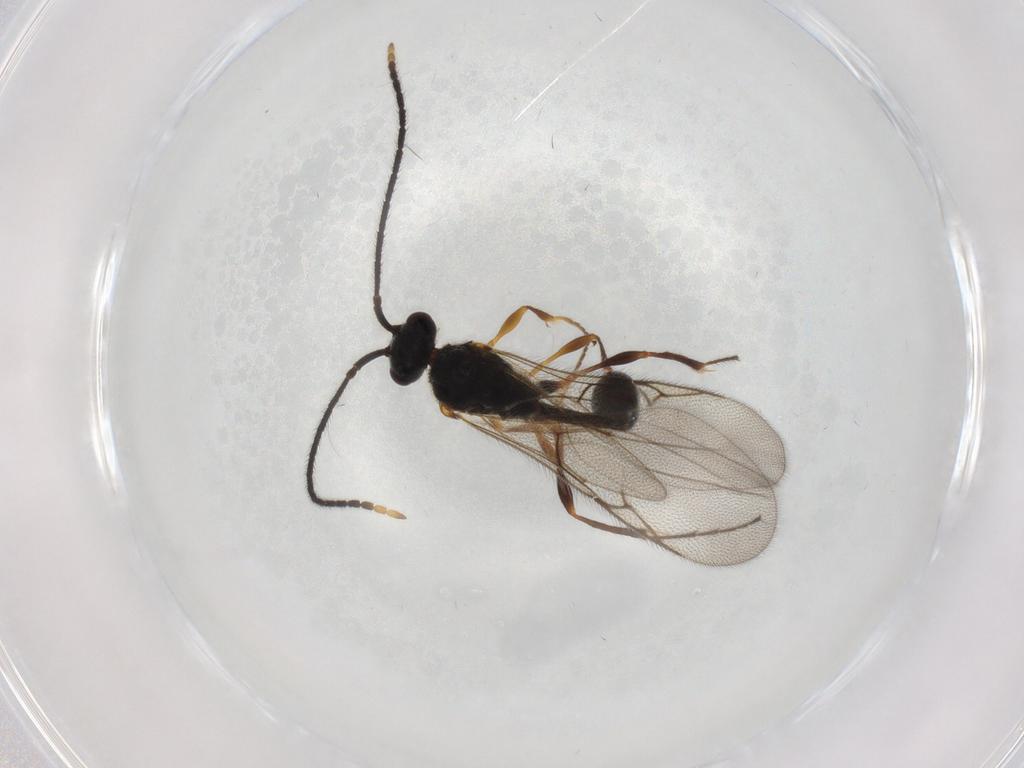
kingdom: Animalia
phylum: Arthropoda
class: Insecta
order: Hymenoptera
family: Diapriidae
